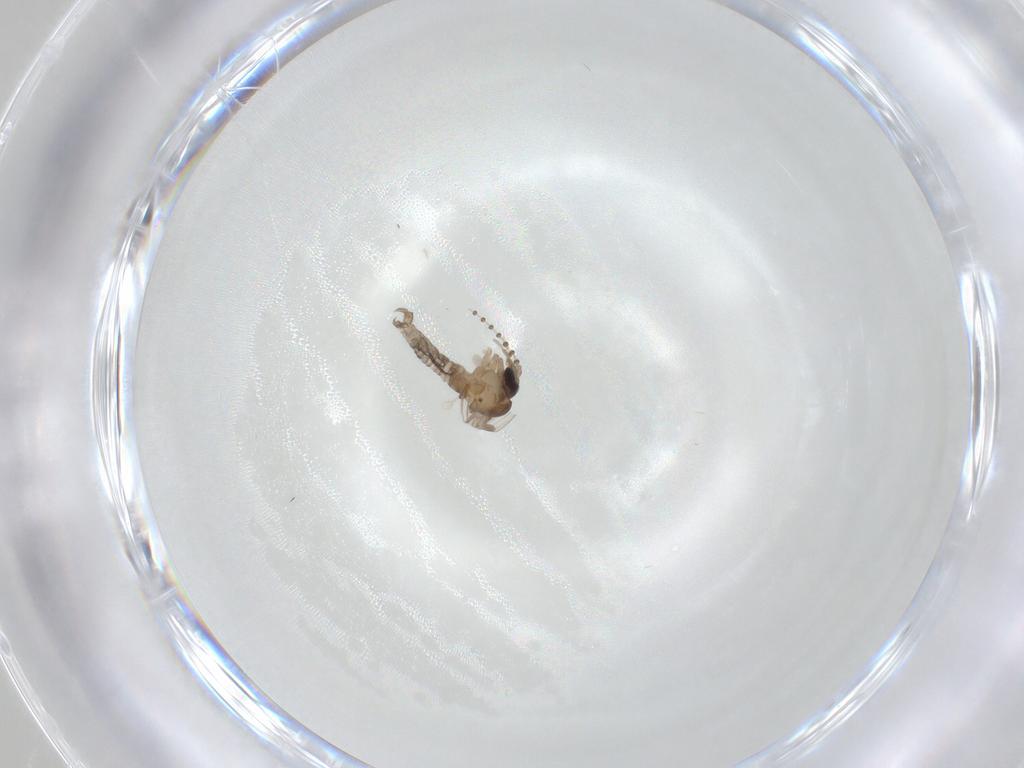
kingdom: Animalia
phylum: Arthropoda
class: Insecta
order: Diptera
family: Psychodidae
